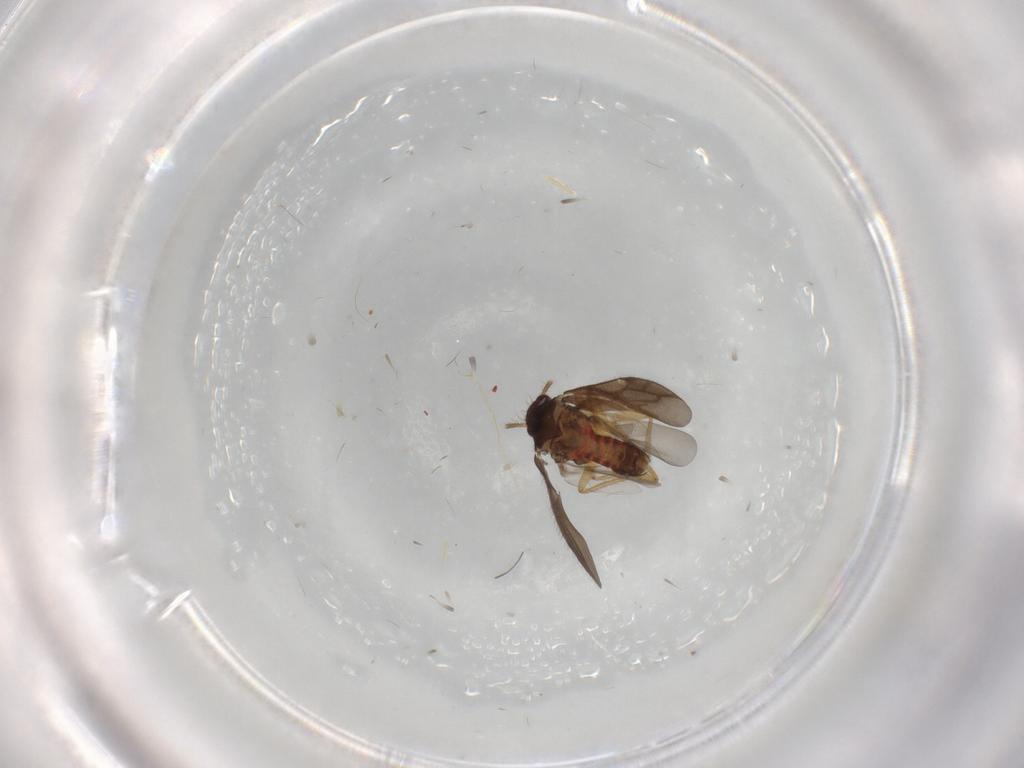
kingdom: Animalia
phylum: Arthropoda
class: Insecta
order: Hemiptera
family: Ceratocombidae
